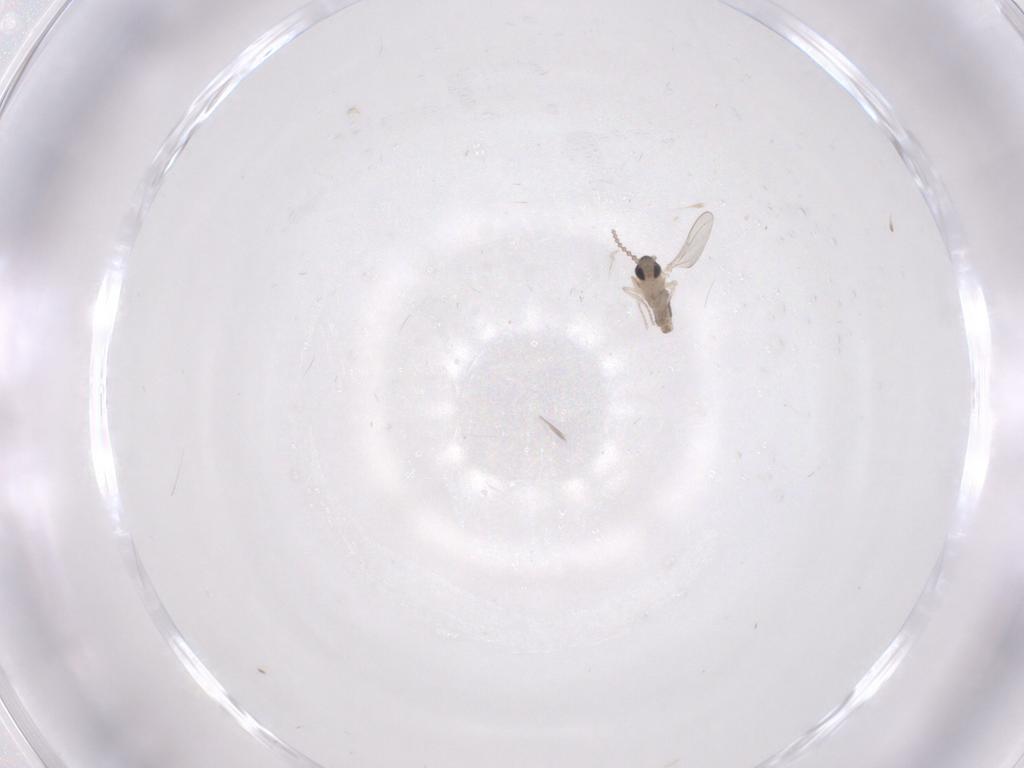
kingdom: Animalia
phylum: Arthropoda
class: Insecta
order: Diptera
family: Cecidomyiidae
